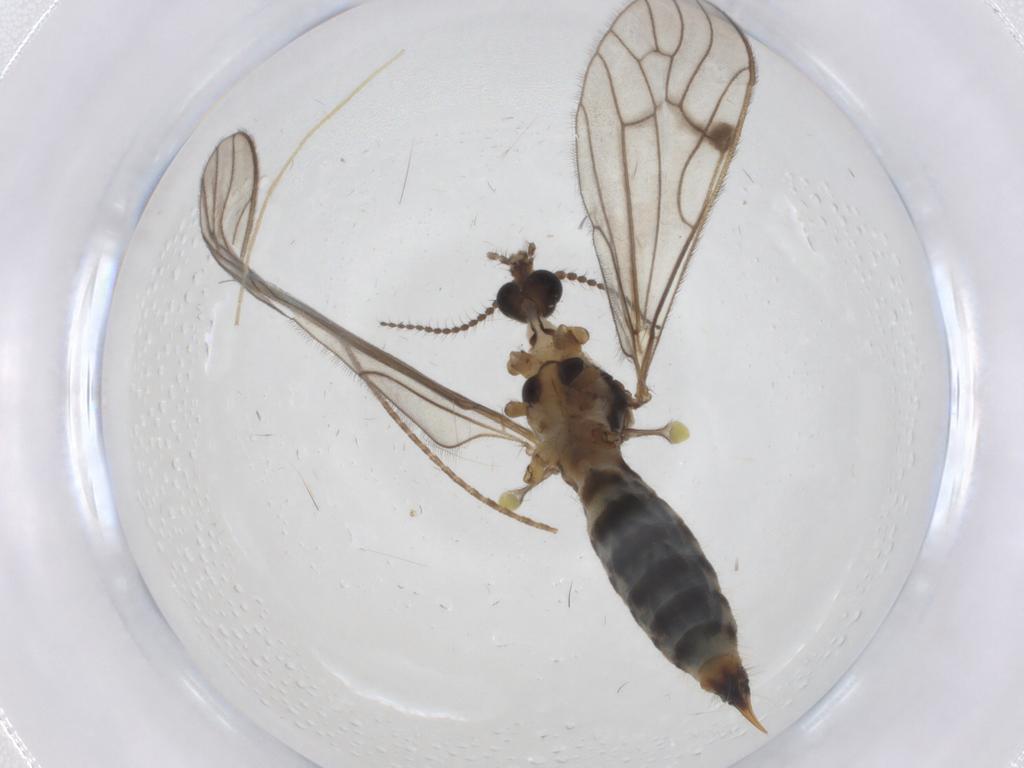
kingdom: Animalia
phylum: Arthropoda
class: Insecta
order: Diptera
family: Limoniidae
